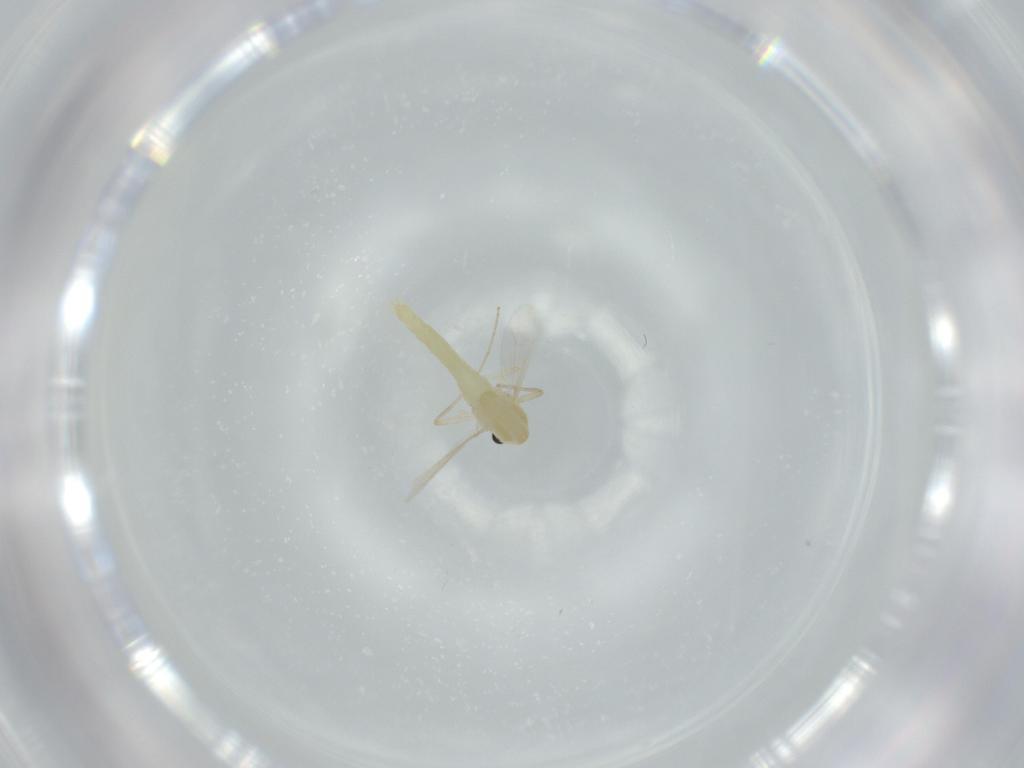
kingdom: Animalia
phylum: Arthropoda
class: Insecta
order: Diptera
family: Chironomidae
